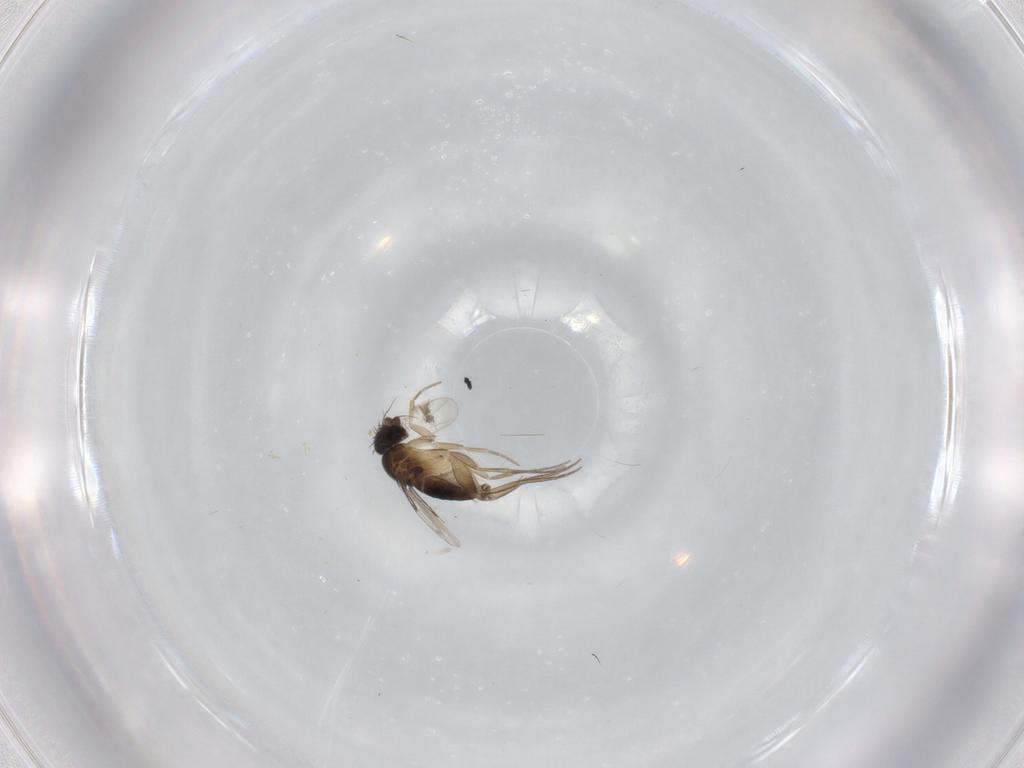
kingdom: Animalia
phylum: Arthropoda
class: Insecta
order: Diptera
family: Phoridae
